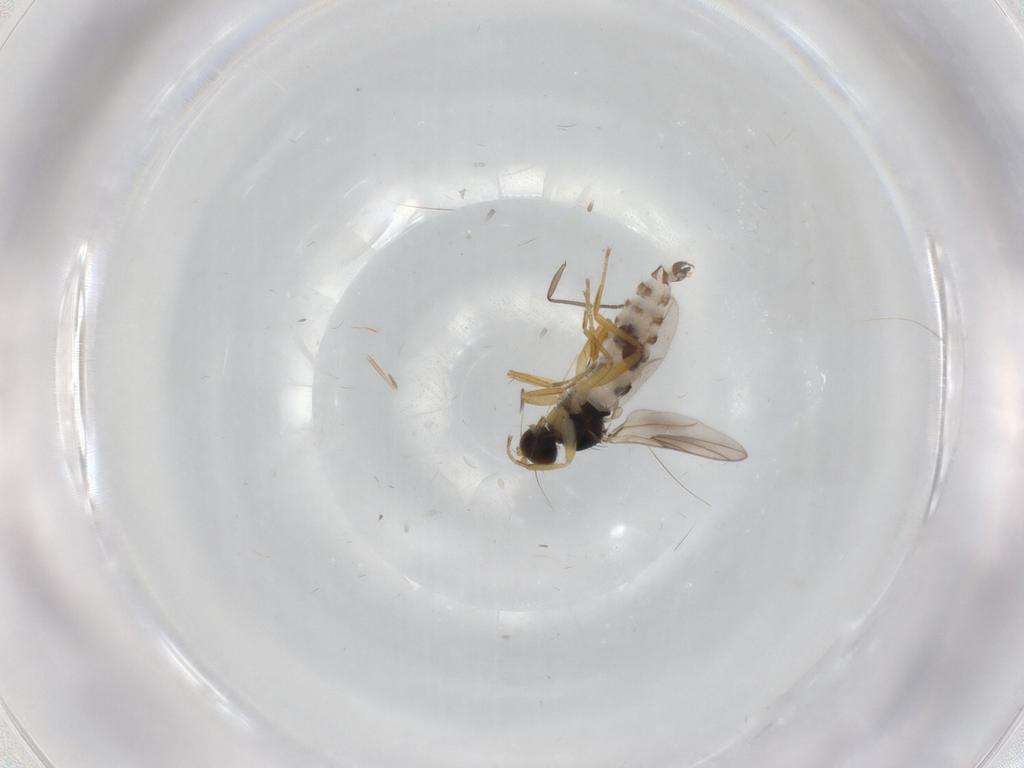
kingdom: Animalia
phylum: Arthropoda
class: Insecta
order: Diptera
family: Hybotidae
